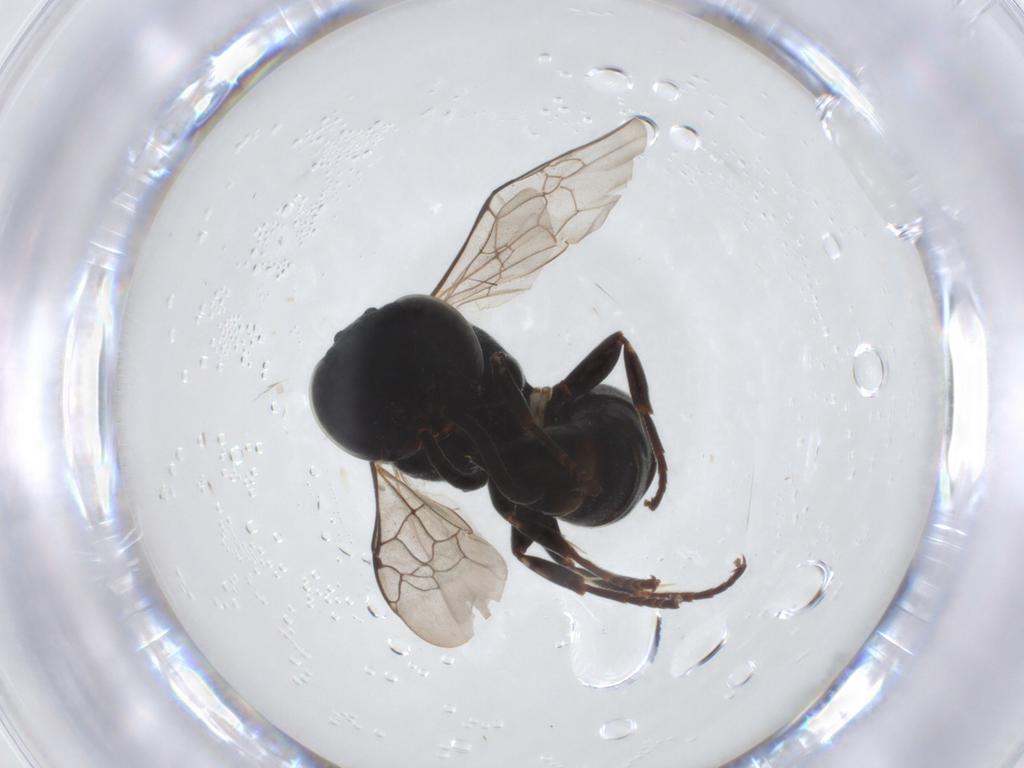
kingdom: Animalia
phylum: Arthropoda
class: Insecta
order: Hymenoptera
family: Crabronidae
